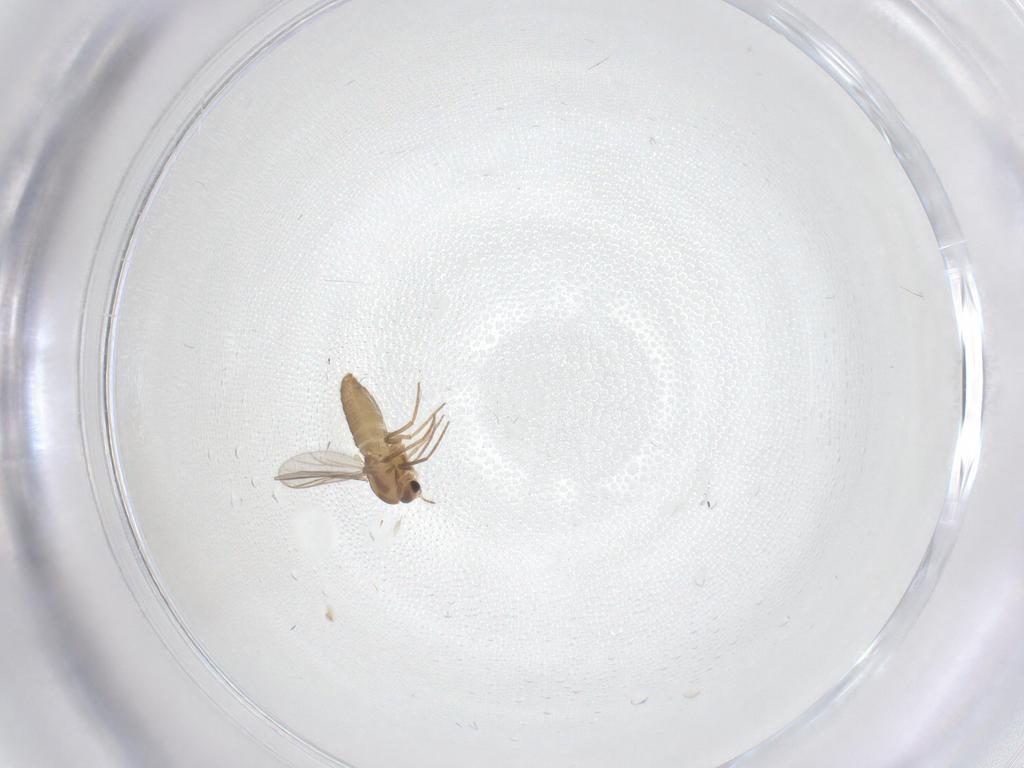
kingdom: Animalia
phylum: Arthropoda
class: Insecta
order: Diptera
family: Chironomidae
